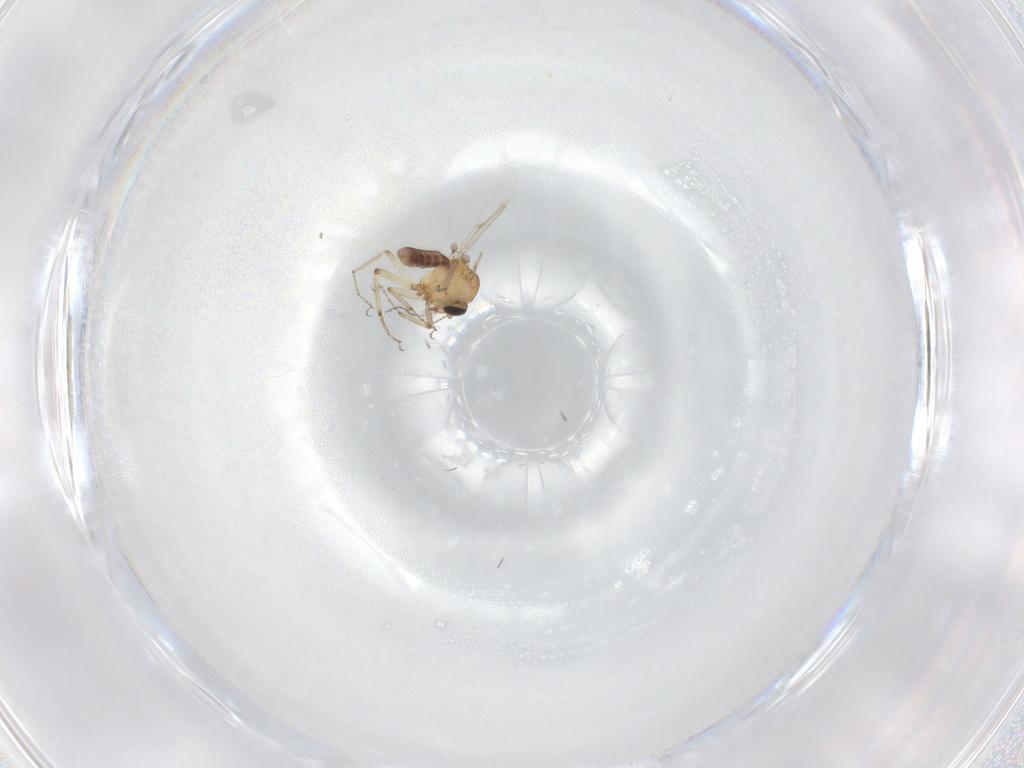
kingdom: Animalia
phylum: Arthropoda
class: Insecta
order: Diptera
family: Ceratopogonidae
